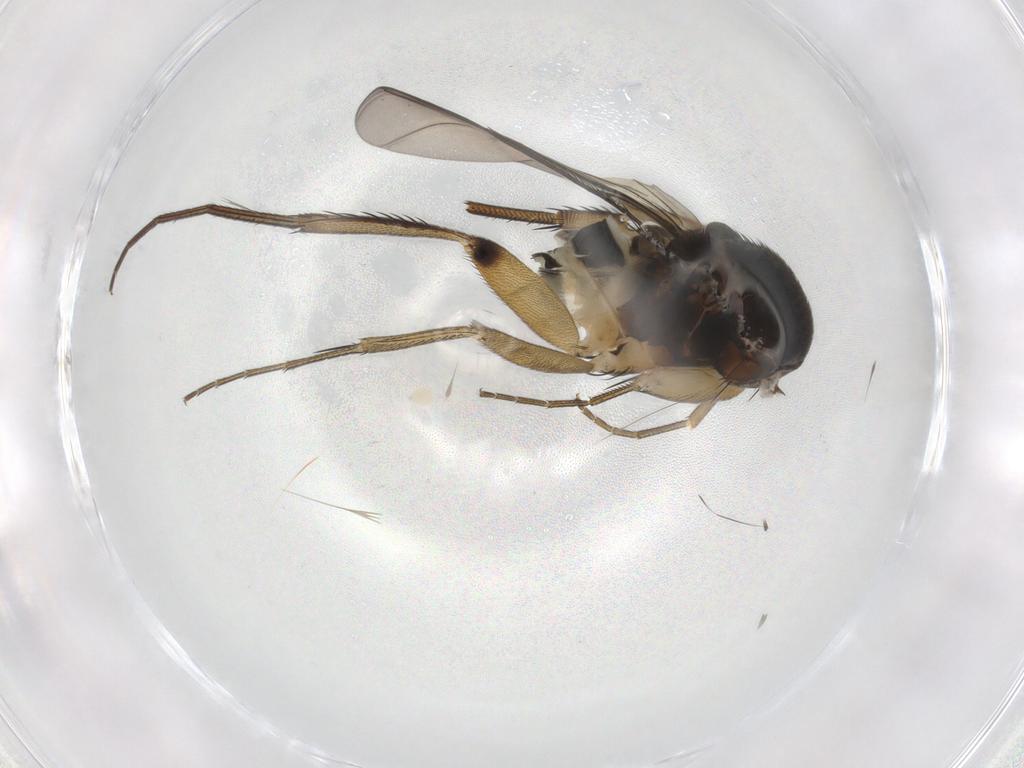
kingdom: Animalia
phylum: Arthropoda
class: Insecta
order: Diptera
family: Phoridae
